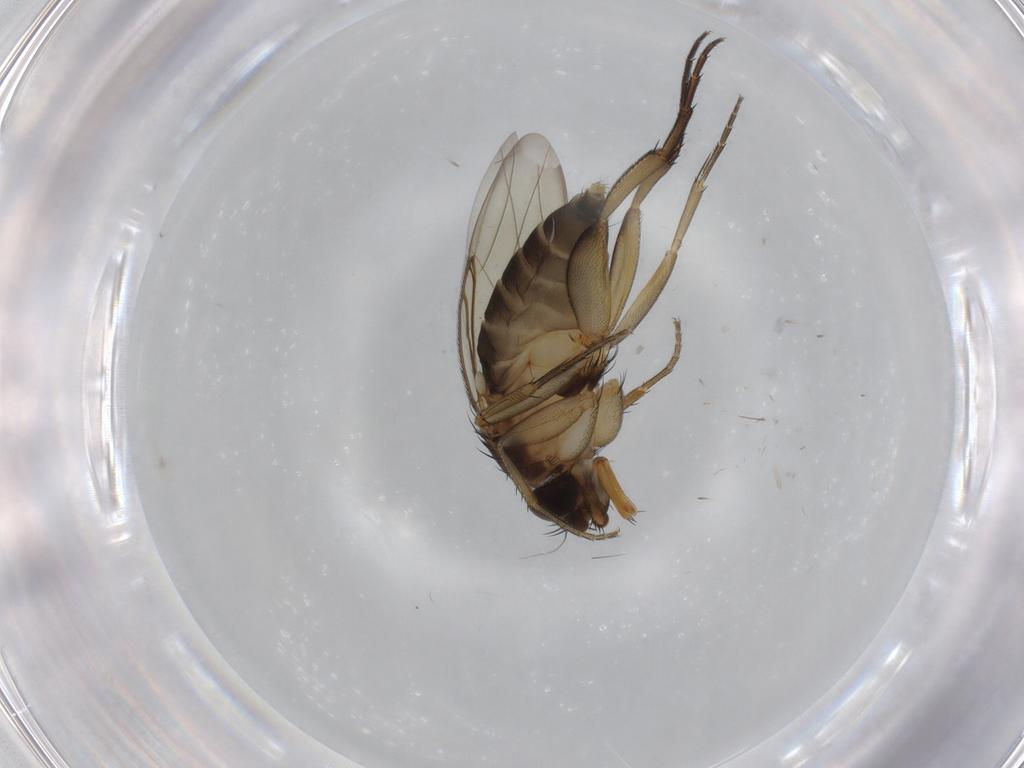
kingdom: Animalia
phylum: Arthropoda
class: Insecta
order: Diptera
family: Phoridae
